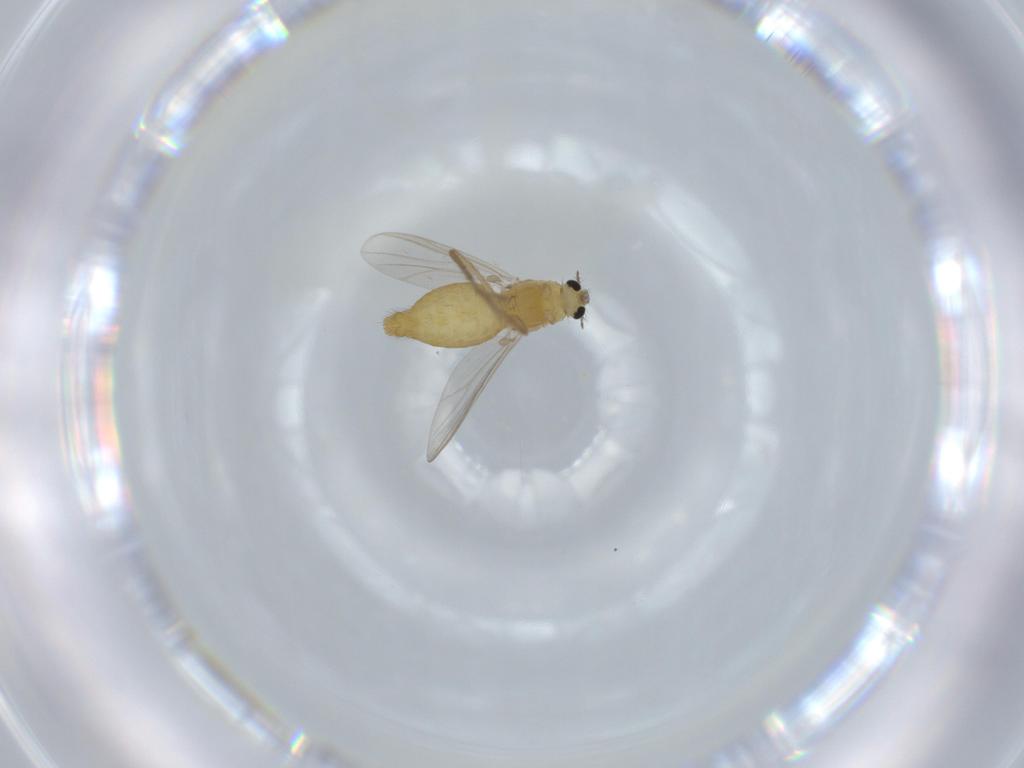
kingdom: Animalia
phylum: Arthropoda
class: Insecta
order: Diptera
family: Chironomidae
